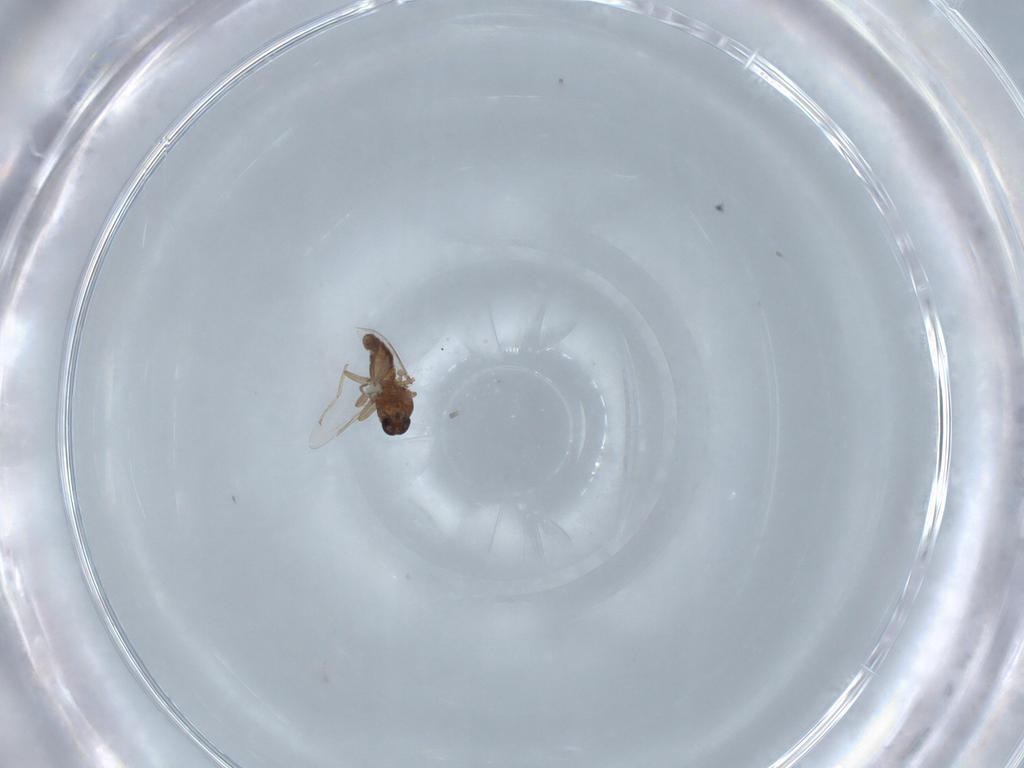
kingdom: Animalia
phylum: Arthropoda
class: Insecta
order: Diptera
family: Ceratopogonidae
